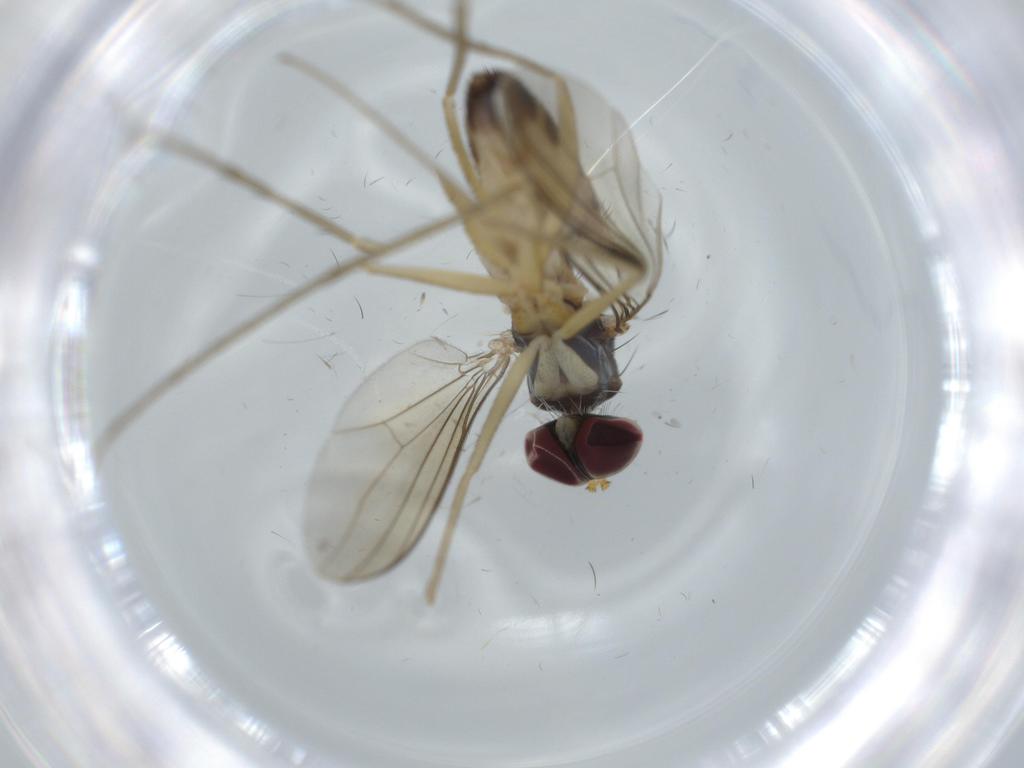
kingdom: Animalia
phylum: Arthropoda
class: Insecta
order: Diptera
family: Dolichopodidae
